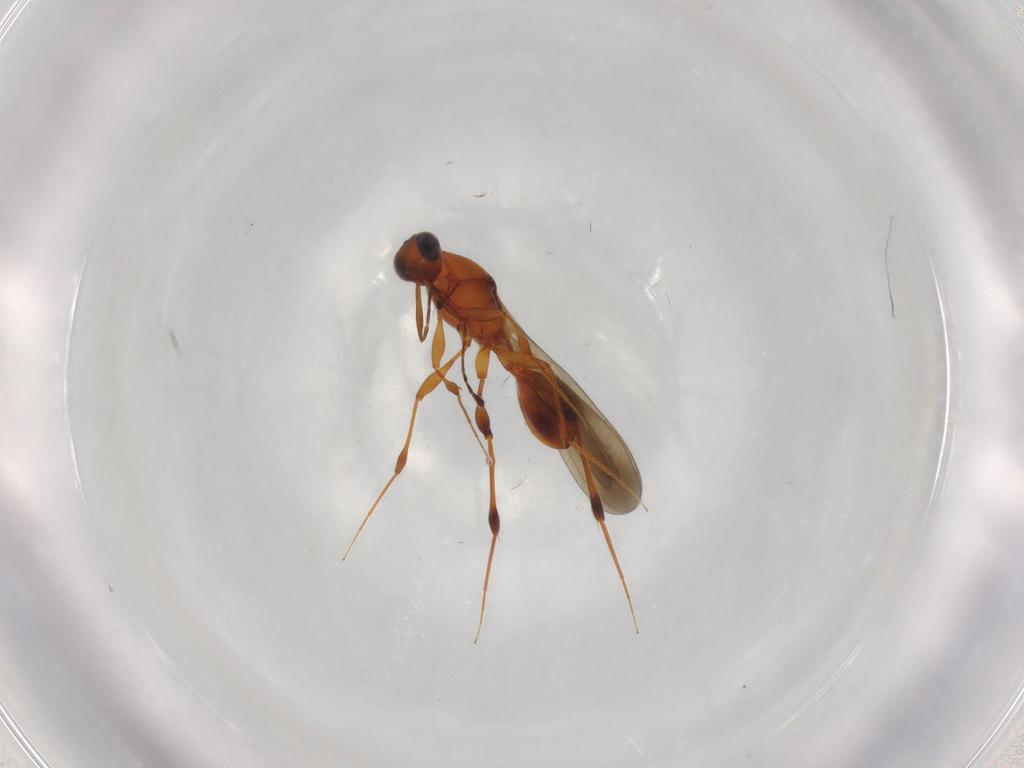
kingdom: Animalia
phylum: Arthropoda
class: Insecta
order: Hymenoptera
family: Platygastridae
